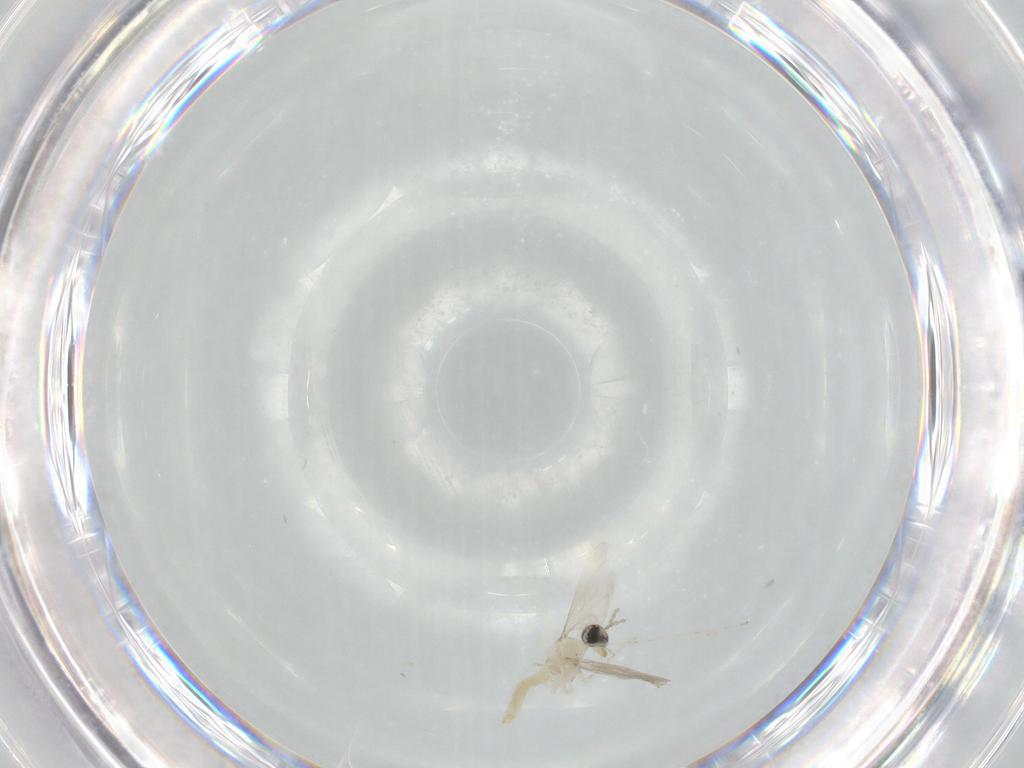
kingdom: Animalia
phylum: Arthropoda
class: Insecta
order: Diptera
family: Cecidomyiidae
